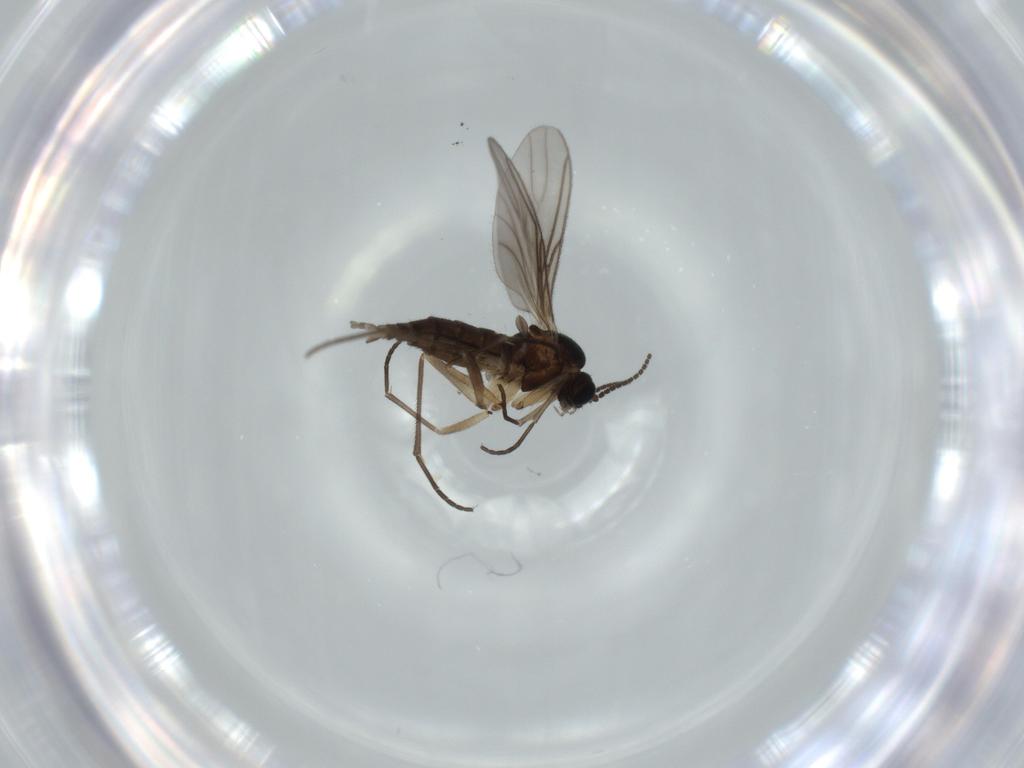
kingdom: Animalia
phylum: Arthropoda
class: Insecta
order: Diptera
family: Sciaridae
